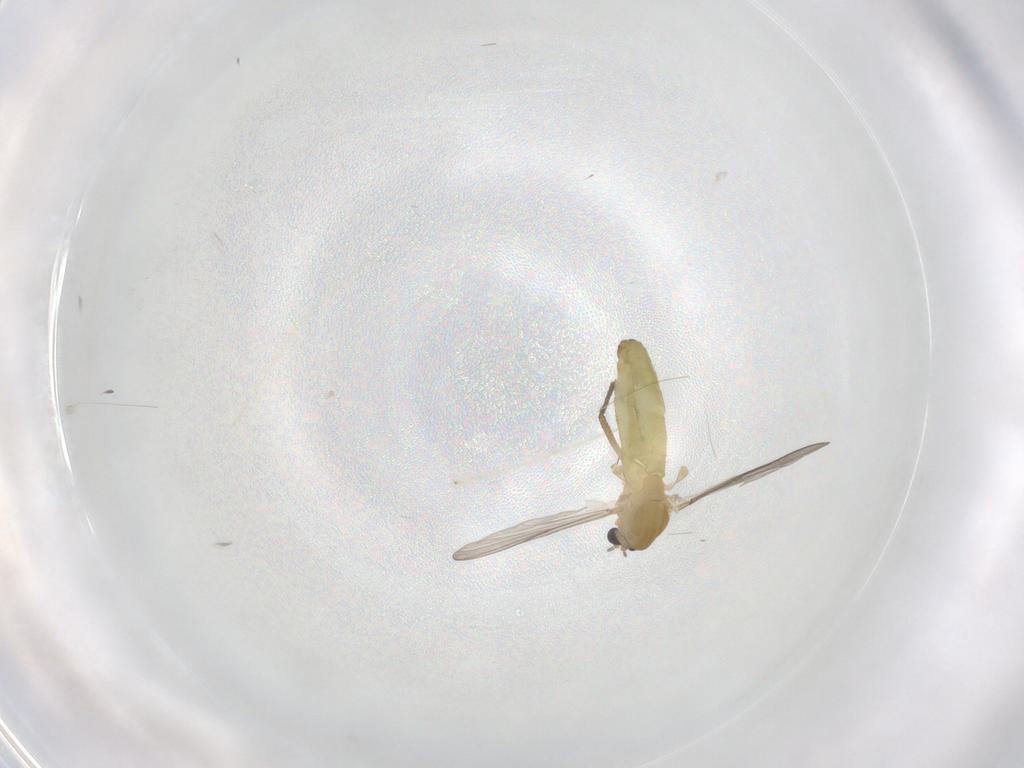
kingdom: Animalia
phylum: Arthropoda
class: Insecta
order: Diptera
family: Chironomidae
